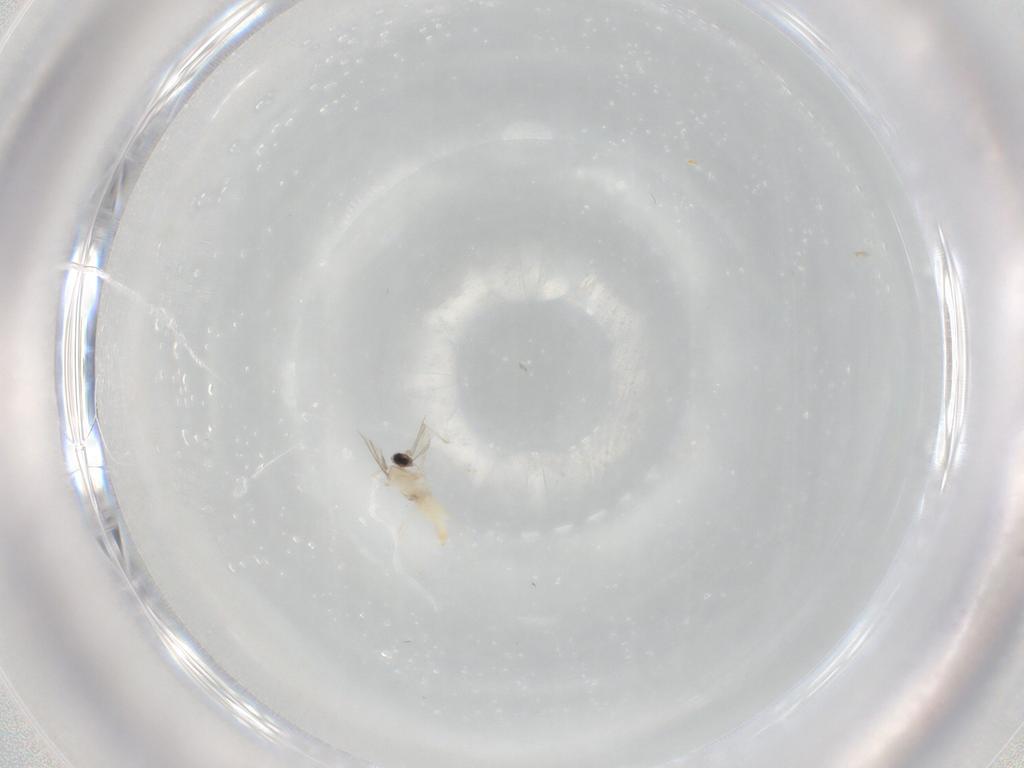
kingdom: Animalia
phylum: Arthropoda
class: Insecta
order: Diptera
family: Cecidomyiidae
